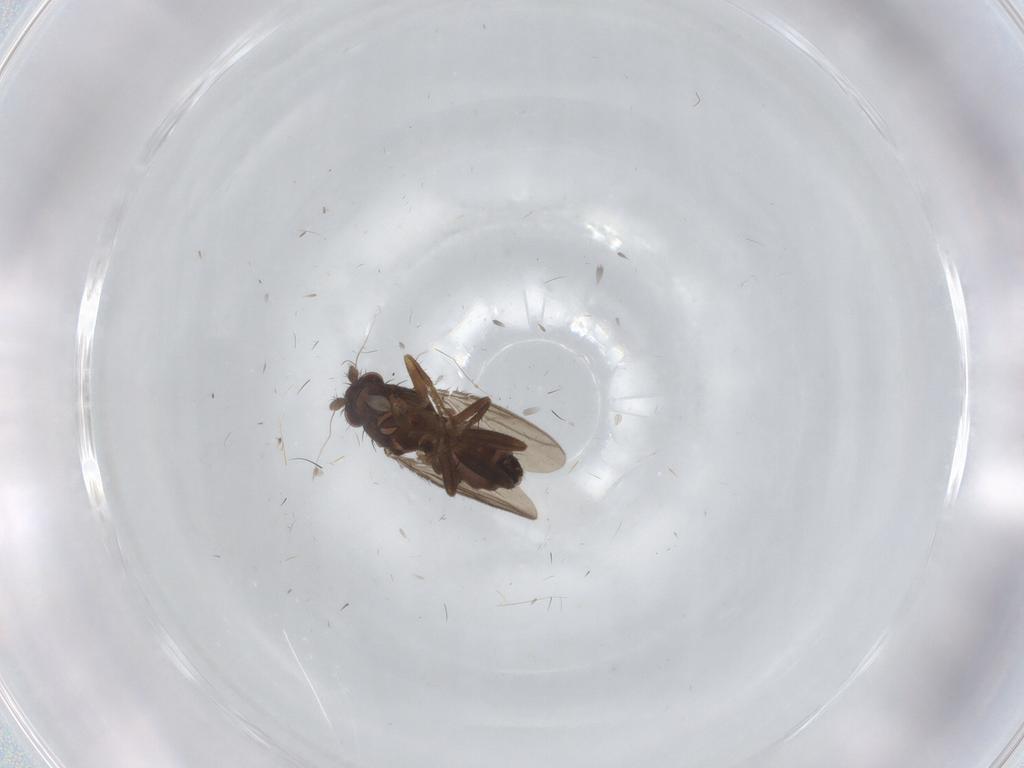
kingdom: Animalia
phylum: Arthropoda
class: Insecta
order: Diptera
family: Sphaeroceridae
